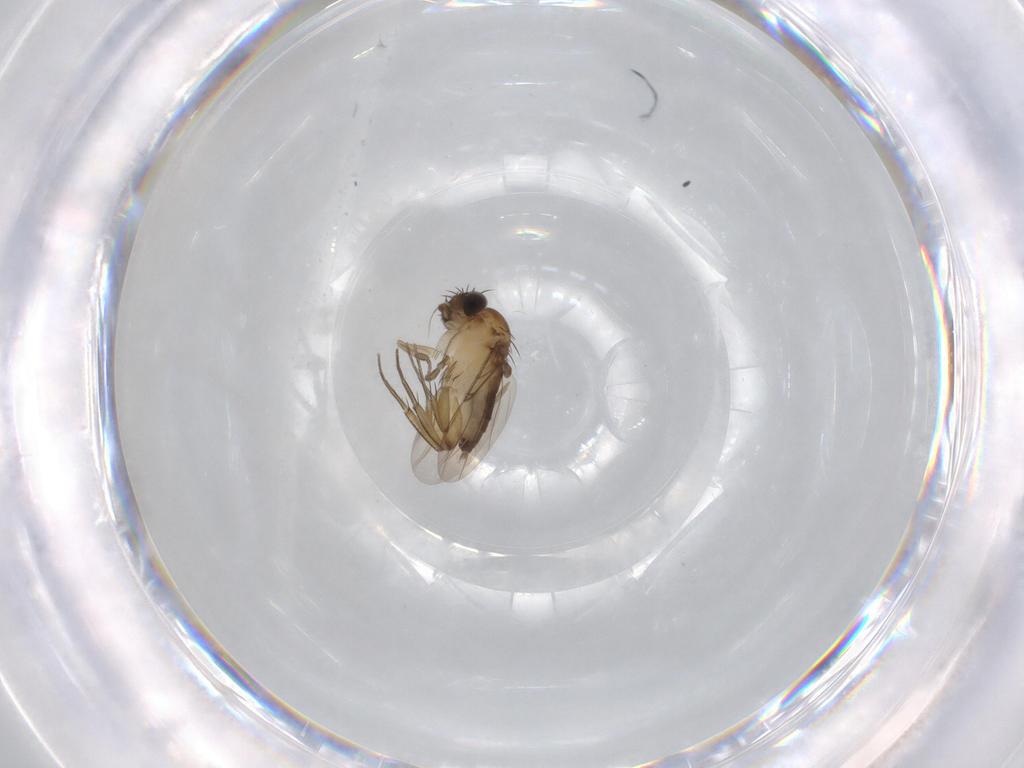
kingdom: Animalia
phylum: Arthropoda
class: Insecta
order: Diptera
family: Phoridae
